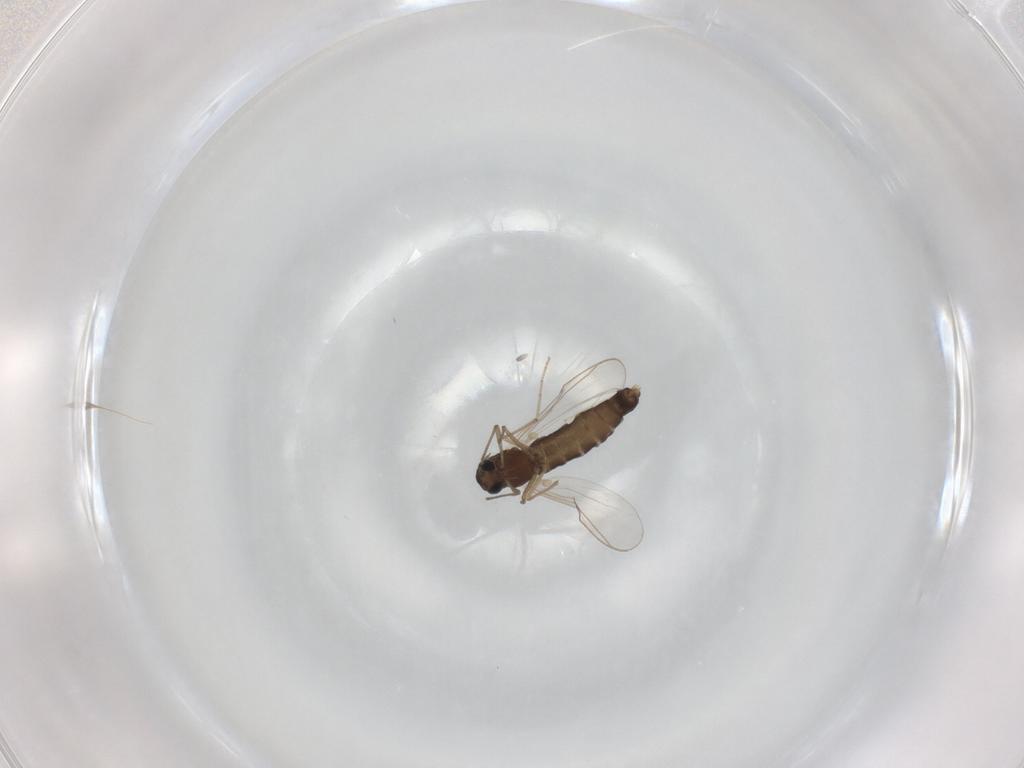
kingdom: Animalia
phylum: Arthropoda
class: Insecta
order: Diptera
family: Chironomidae
